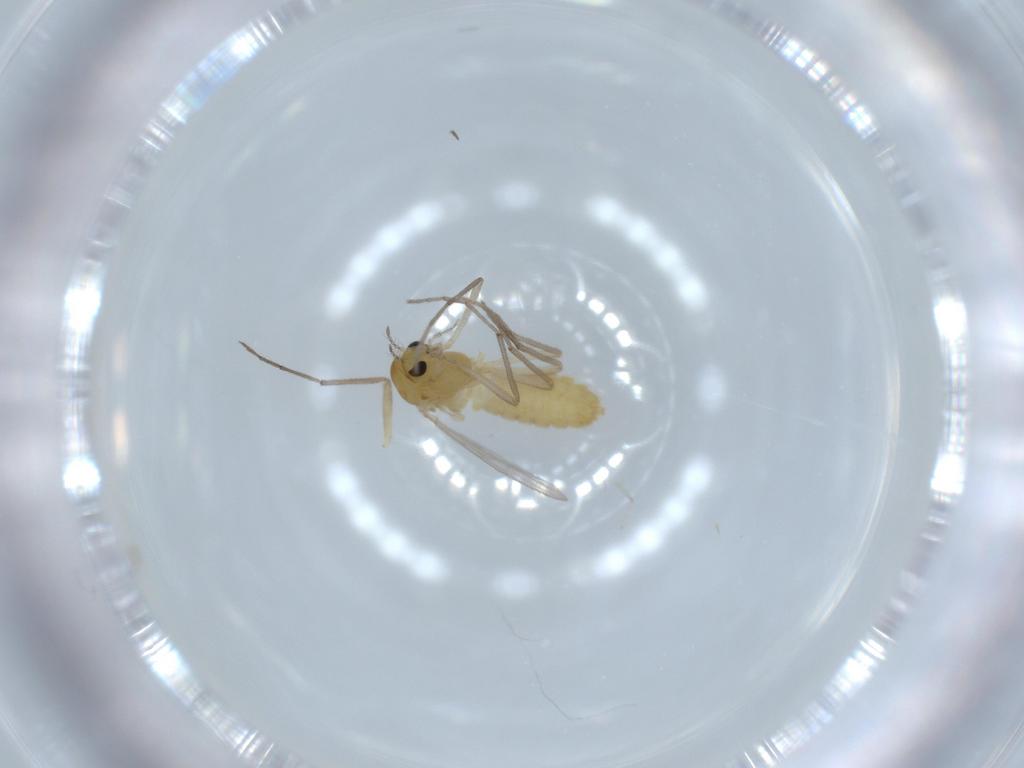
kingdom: Animalia
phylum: Arthropoda
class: Insecta
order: Diptera
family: Chironomidae
